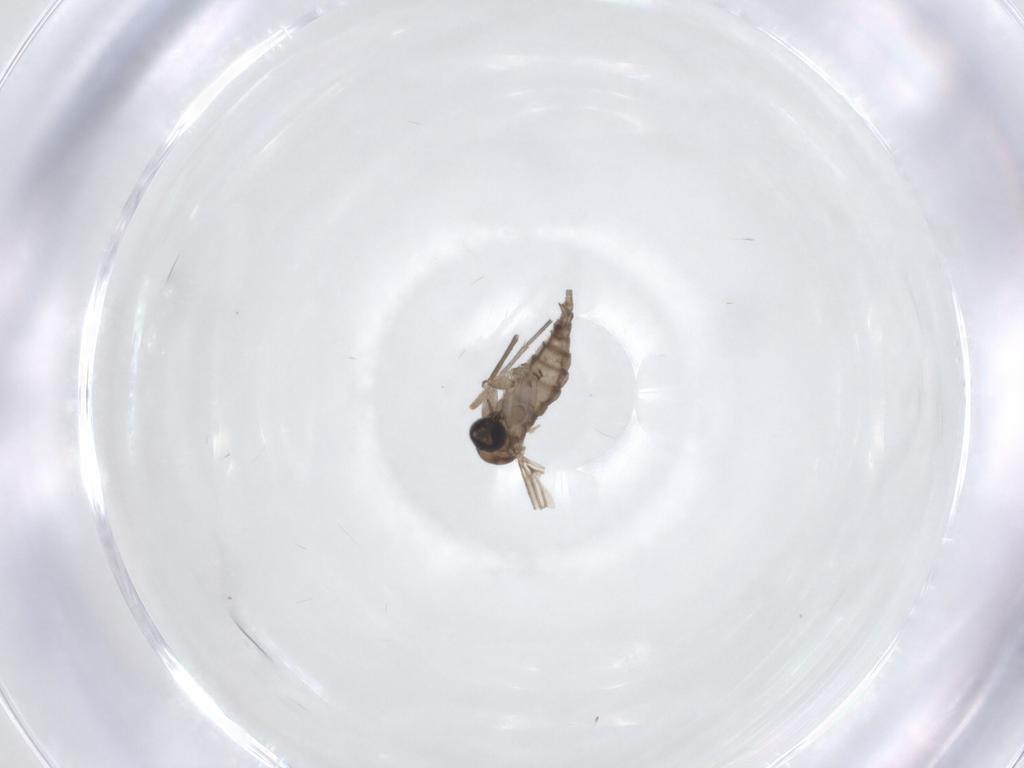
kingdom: Animalia
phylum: Arthropoda
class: Insecta
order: Diptera
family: Sciaridae
